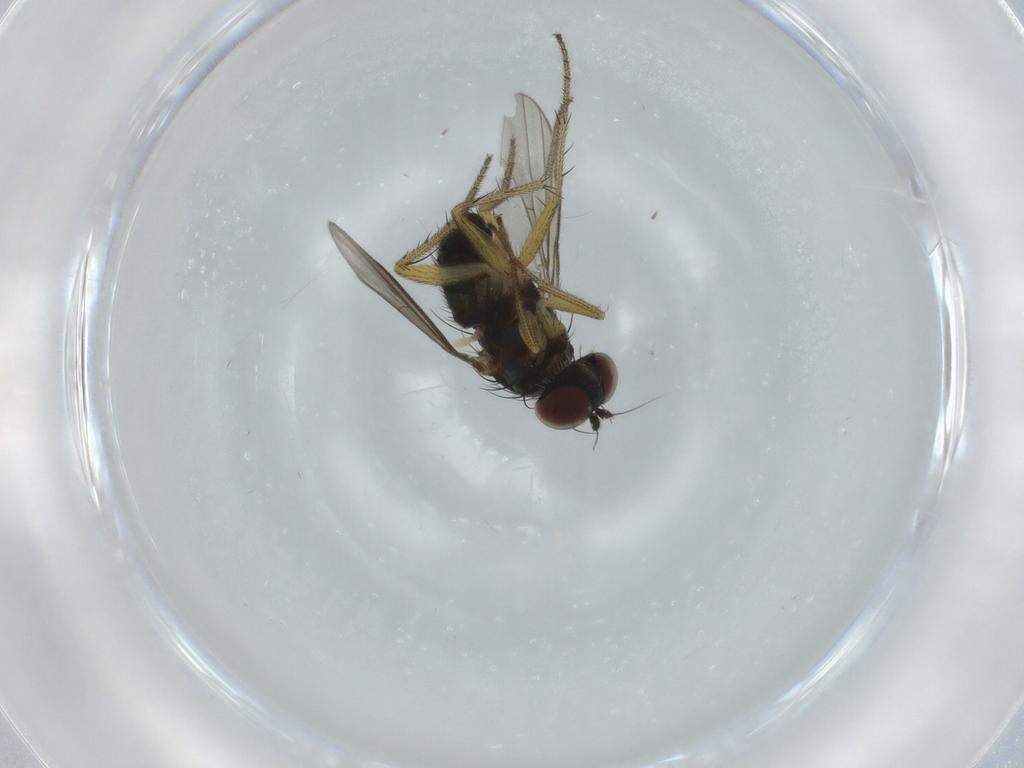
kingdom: Animalia
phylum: Arthropoda
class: Insecta
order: Diptera
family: Dolichopodidae
